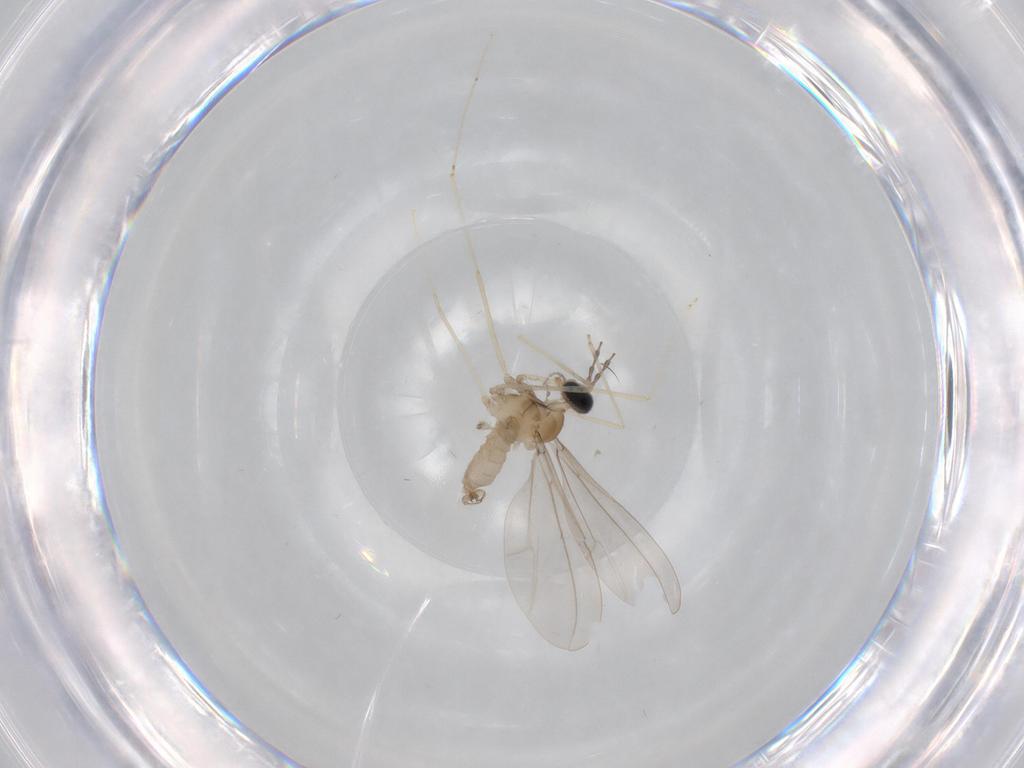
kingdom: Animalia
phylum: Arthropoda
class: Insecta
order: Diptera
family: Cecidomyiidae
